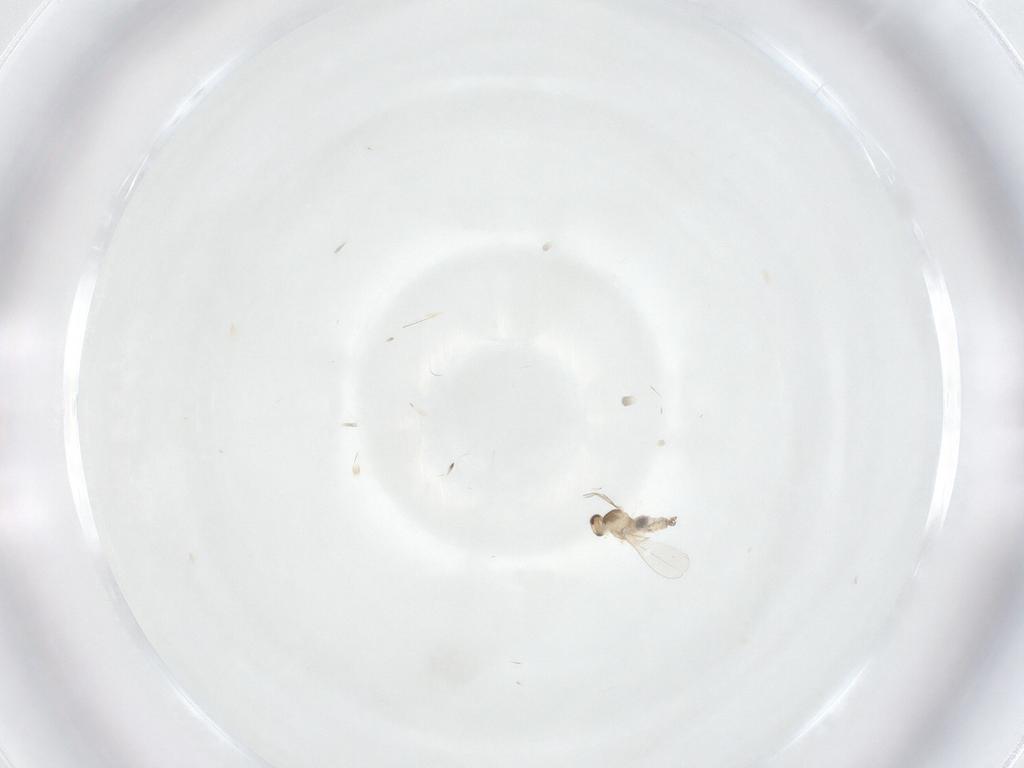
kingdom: Animalia
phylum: Arthropoda
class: Insecta
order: Diptera
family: Cecidomyiidae
